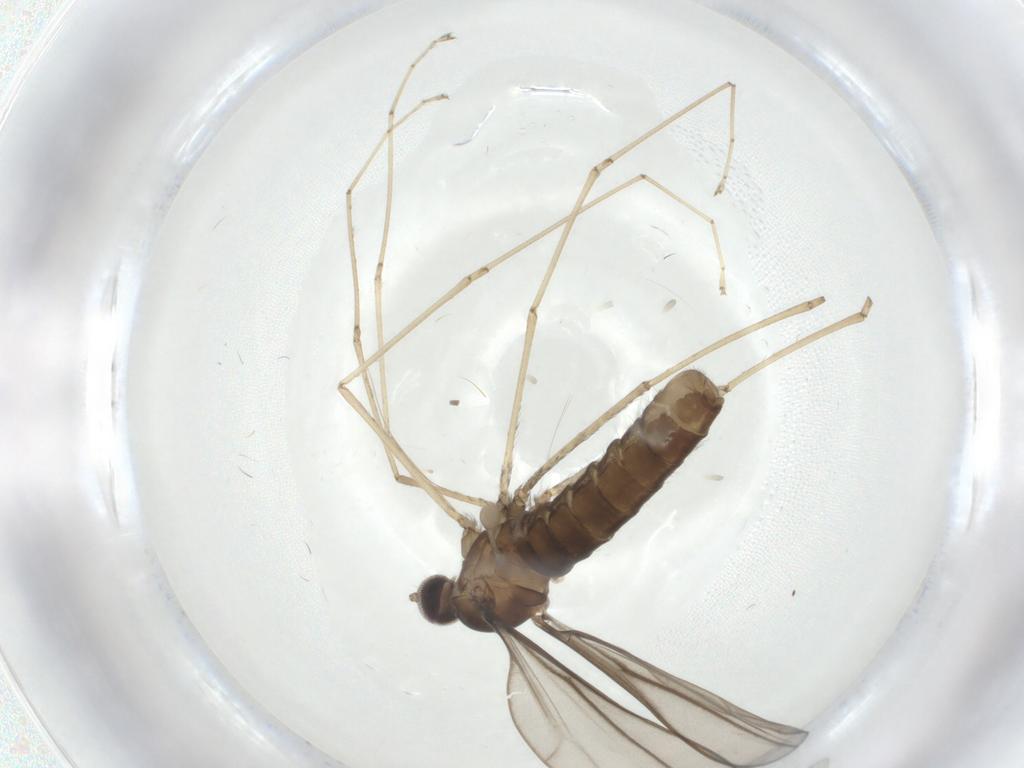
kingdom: Animalia
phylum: Arthropoda
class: Insecta
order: Diptera
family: Cecidomyiidae
